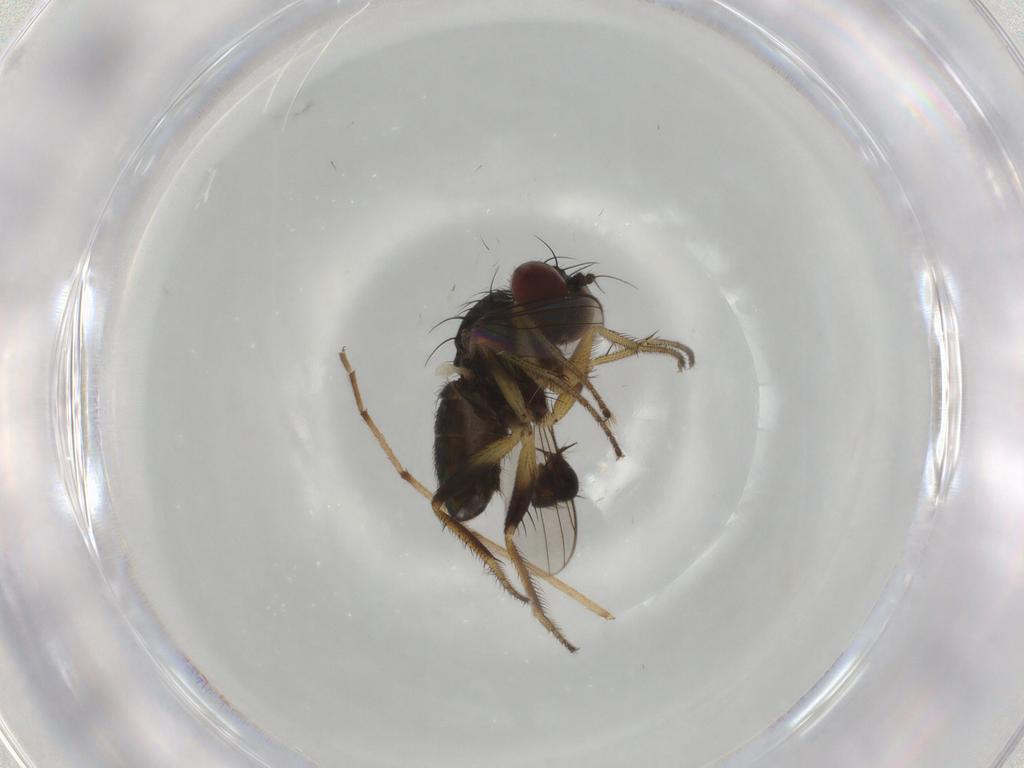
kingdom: Animalia
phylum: Arthropoda
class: Insecta
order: Diptera
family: Dolichopodidae
